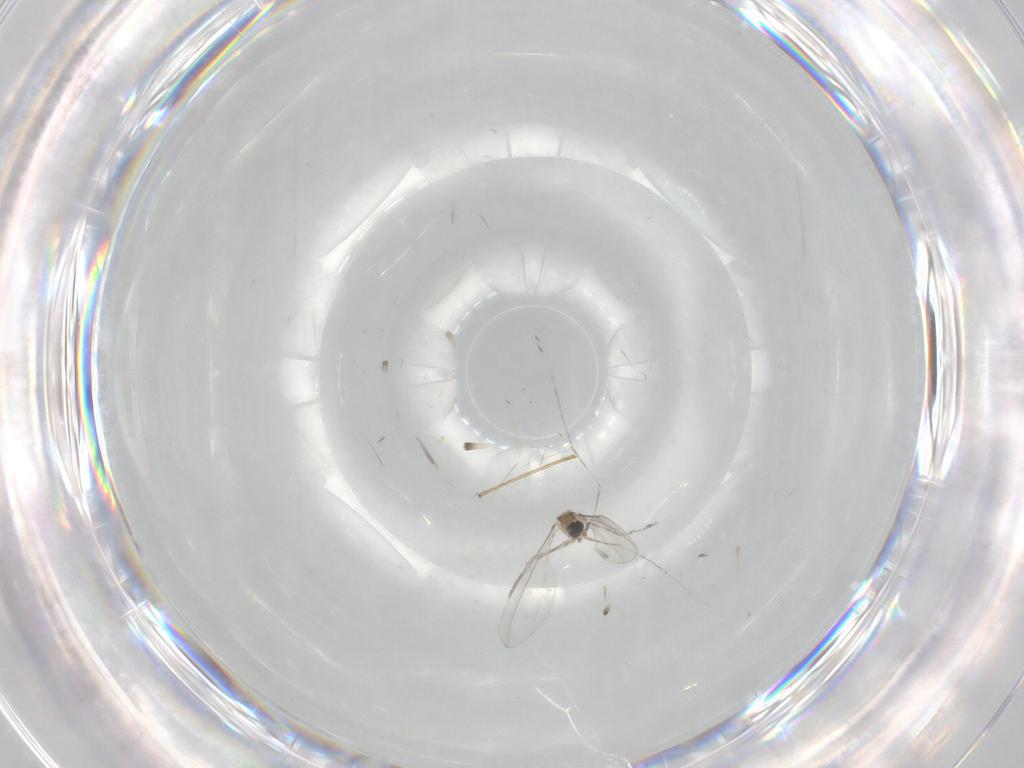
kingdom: Animalia
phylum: Arthropoda
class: Insecta
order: Diptera
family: Psychodidae
